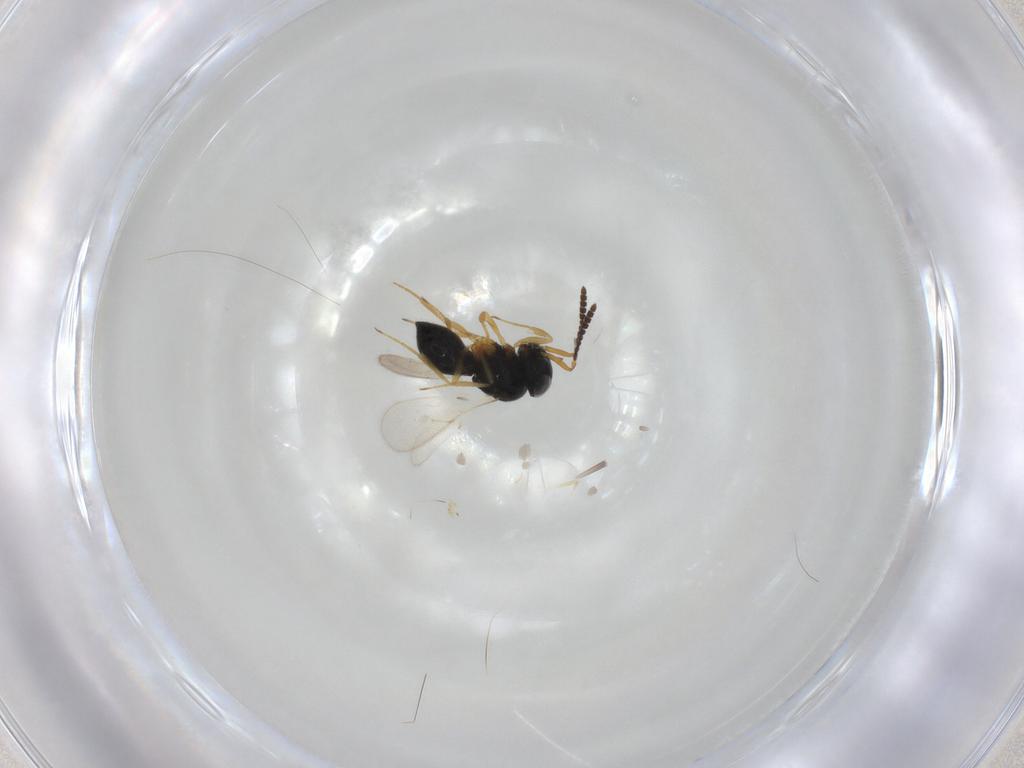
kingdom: Animalia
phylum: Arthropoda
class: Insecta
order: Hymenoptera
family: Scelionidae
